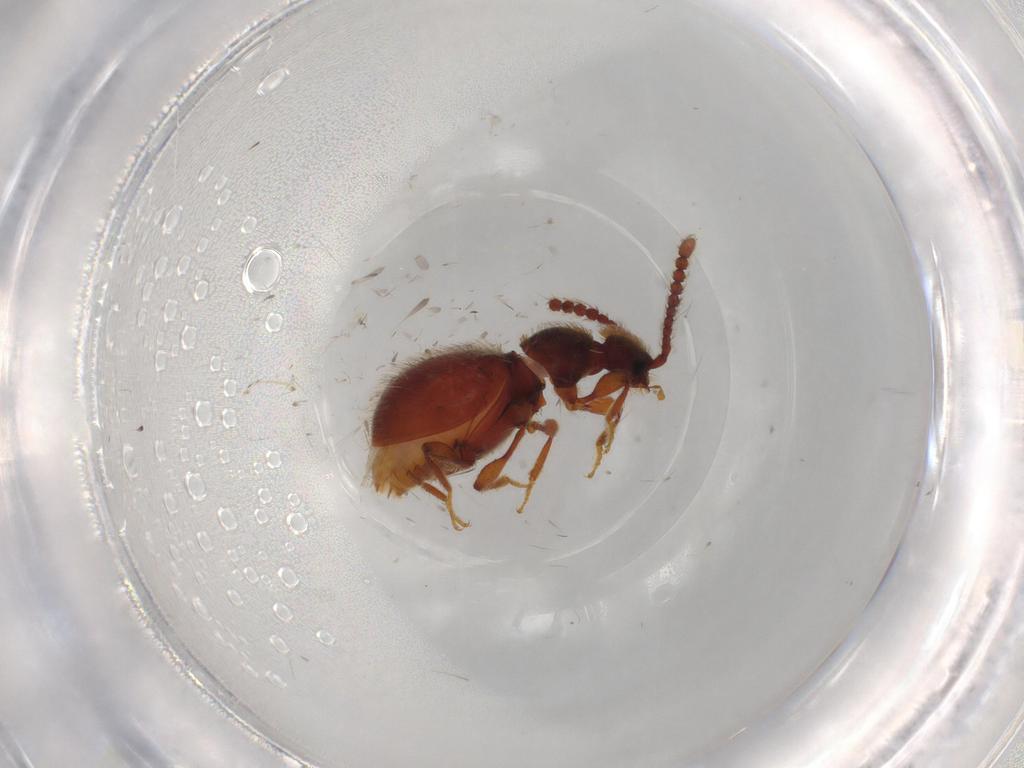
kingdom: Animalia
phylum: Arthropoda
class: Insecta
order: Coleoptera
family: Staphylinidae
